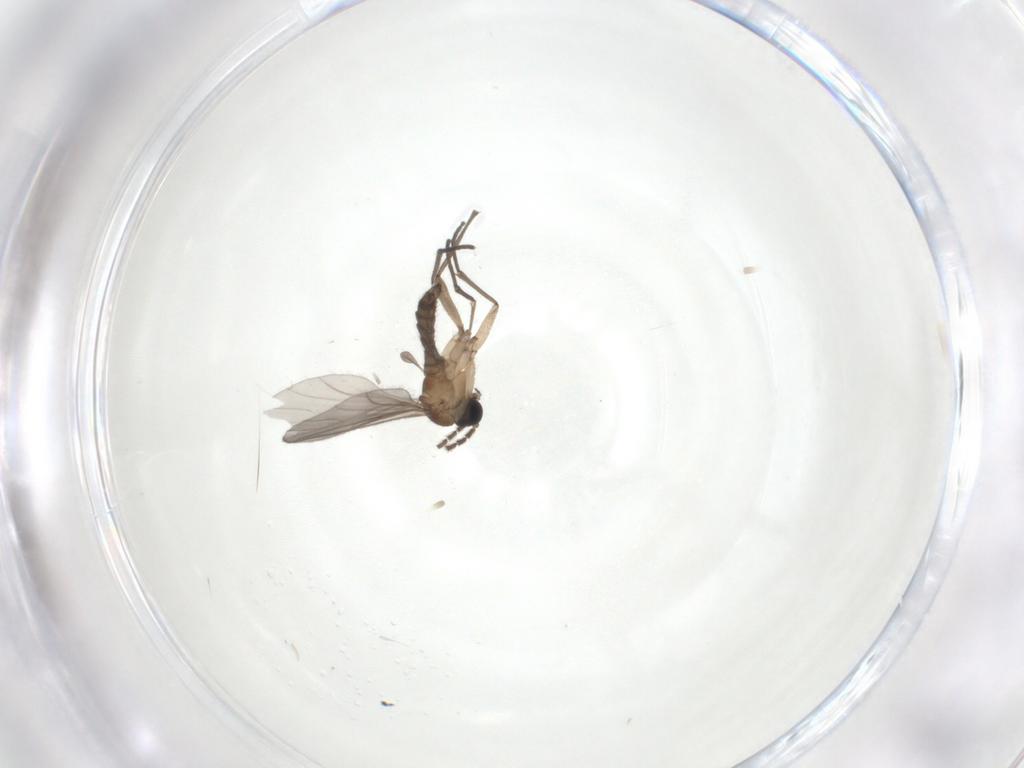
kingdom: Animalia
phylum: Arthropoda
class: Insecta
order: Diptera
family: Sciaridae
